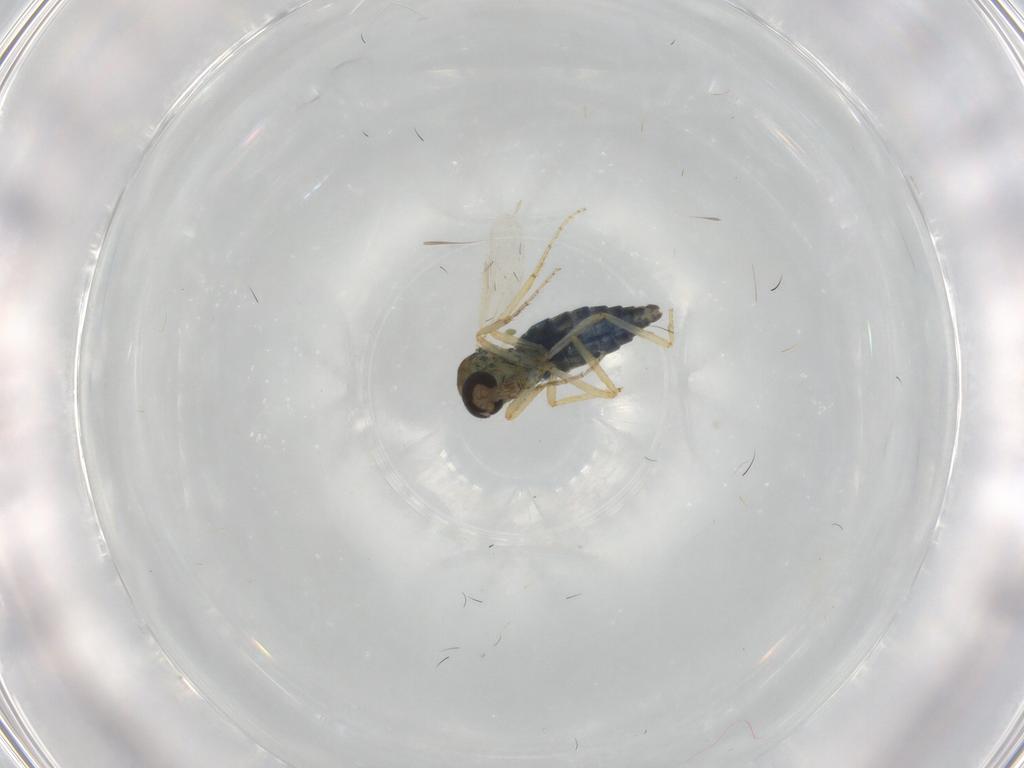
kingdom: Animalia
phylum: Arthropoda
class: Insecta
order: Diptera
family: Ceratopogonidae
